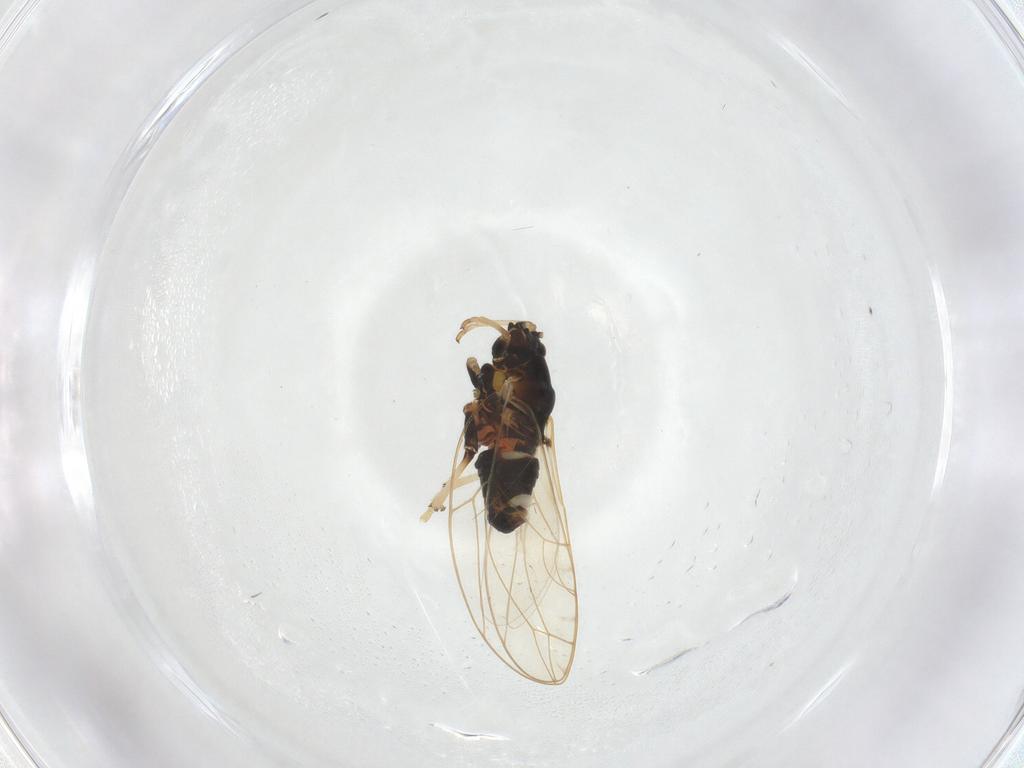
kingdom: Animalia
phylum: Arthropoda
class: Insecta
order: Hemiptera
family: Triozidae
